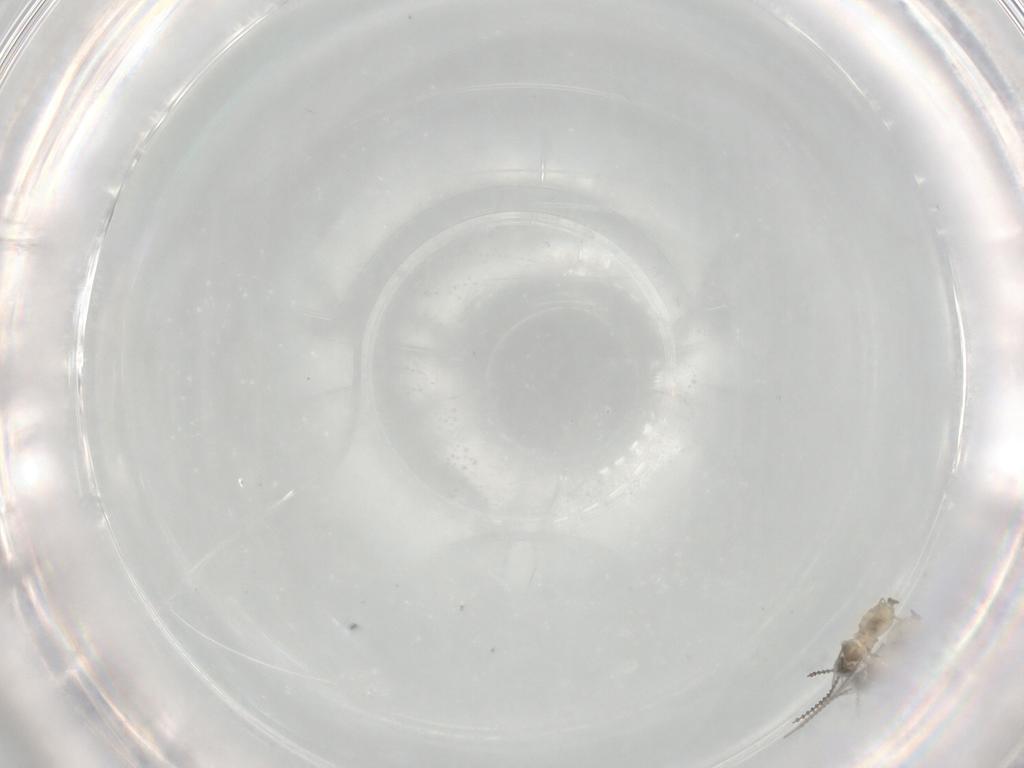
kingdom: Animalia
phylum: Arthropoda
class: Insecta
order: Diptera
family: Cecidomyiidae
